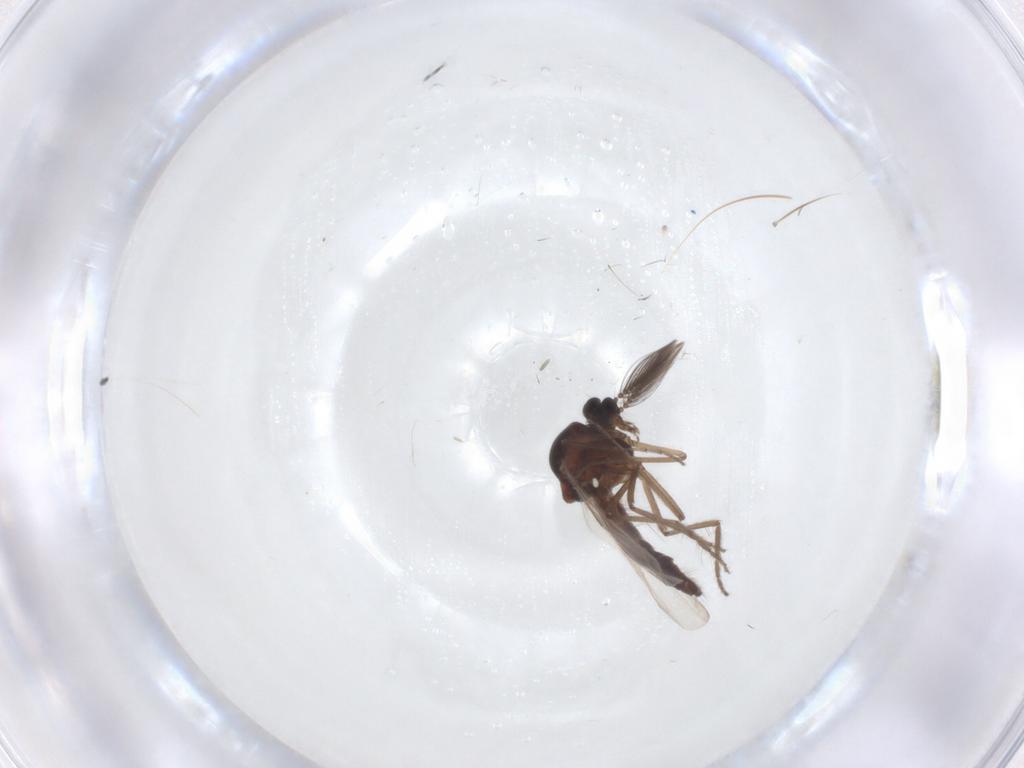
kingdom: Animalia
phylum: Arthropoda
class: Insecta
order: Diptera
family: Ceratopogonidae
